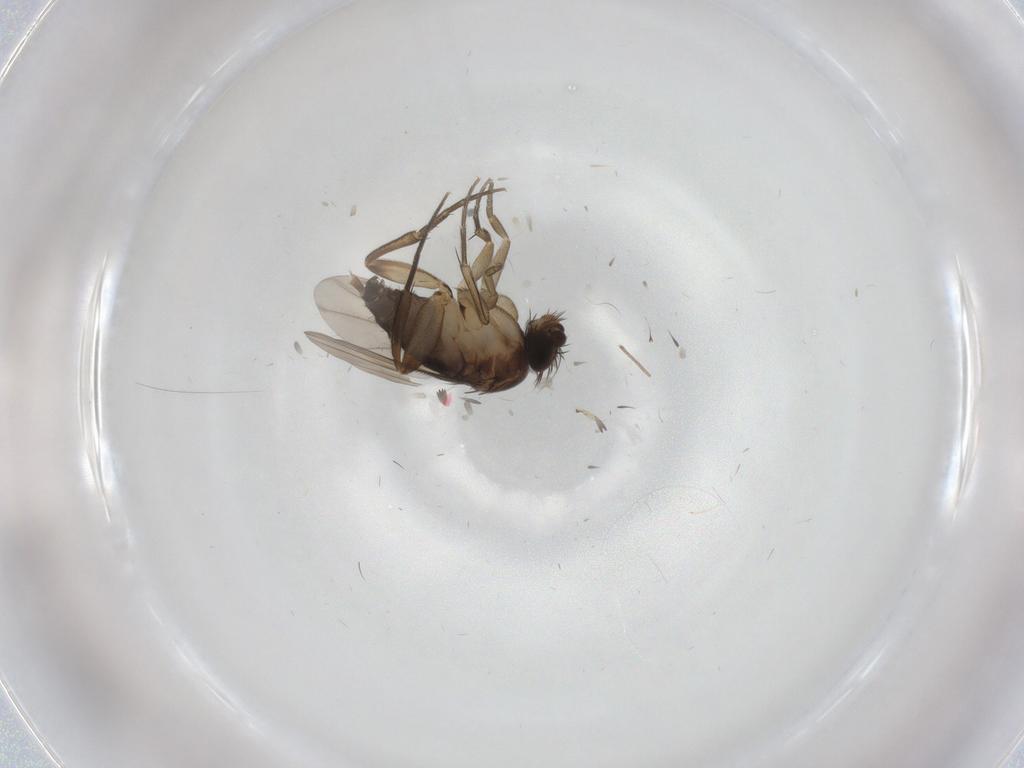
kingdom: Animalia
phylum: Arthropoda
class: Insecta
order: Diptera
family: Phoridae
